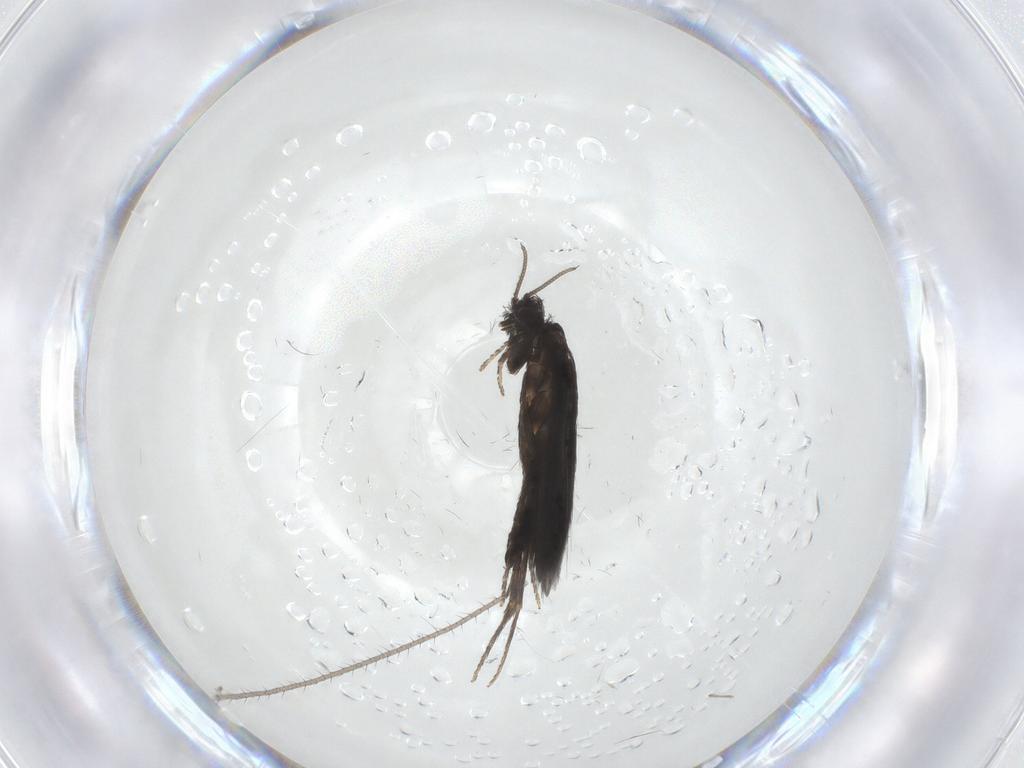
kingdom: Animalia
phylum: Arthropoda
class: Insecta
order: Trichoptera
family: Hydroptilidae
